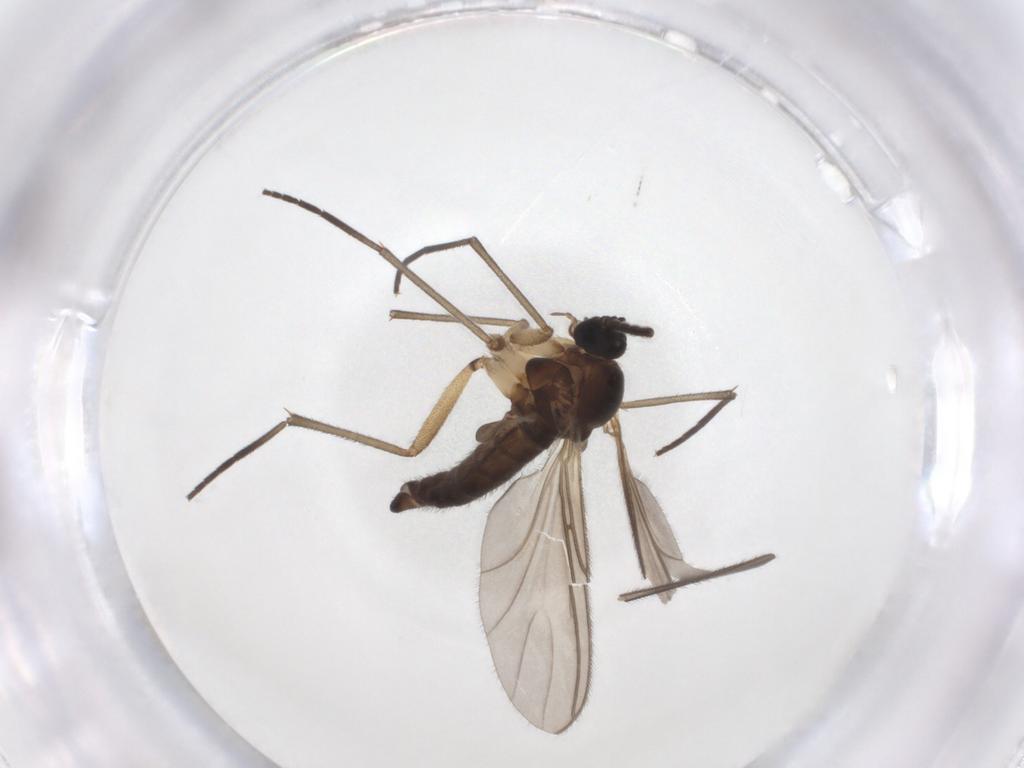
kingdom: Animalia
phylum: Arthropoda
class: Insecta
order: Diptera
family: Sciaridae
